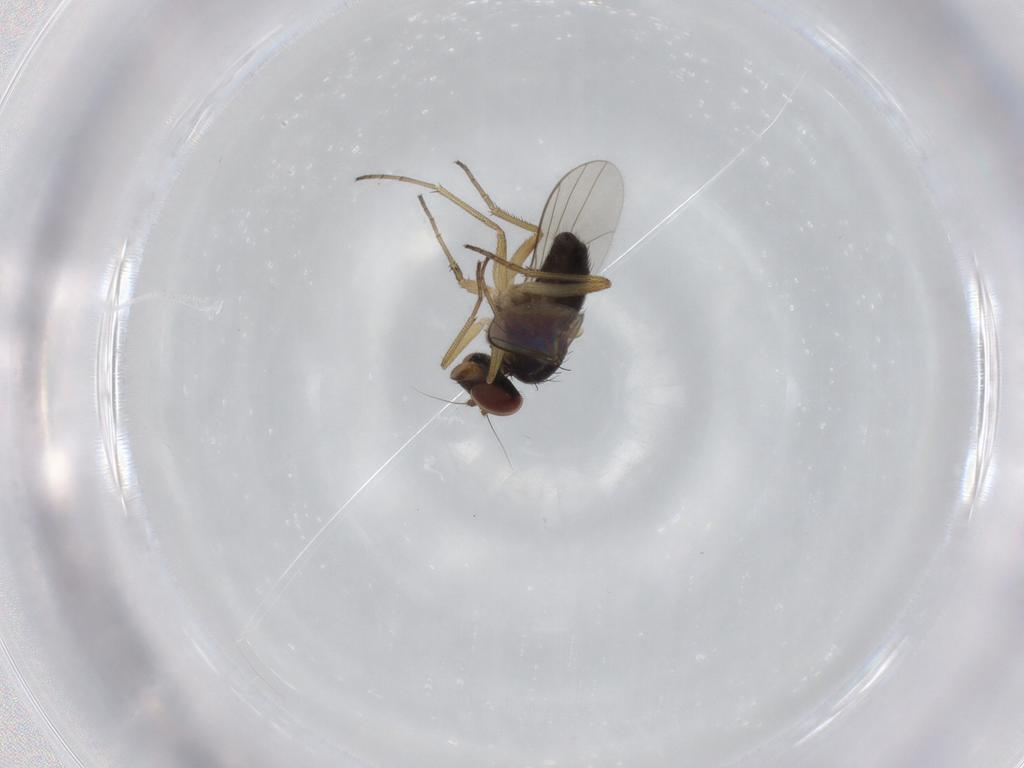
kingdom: Animalia
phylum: Arthropoda
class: Insecta
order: Diptera
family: Dolichopodidae
